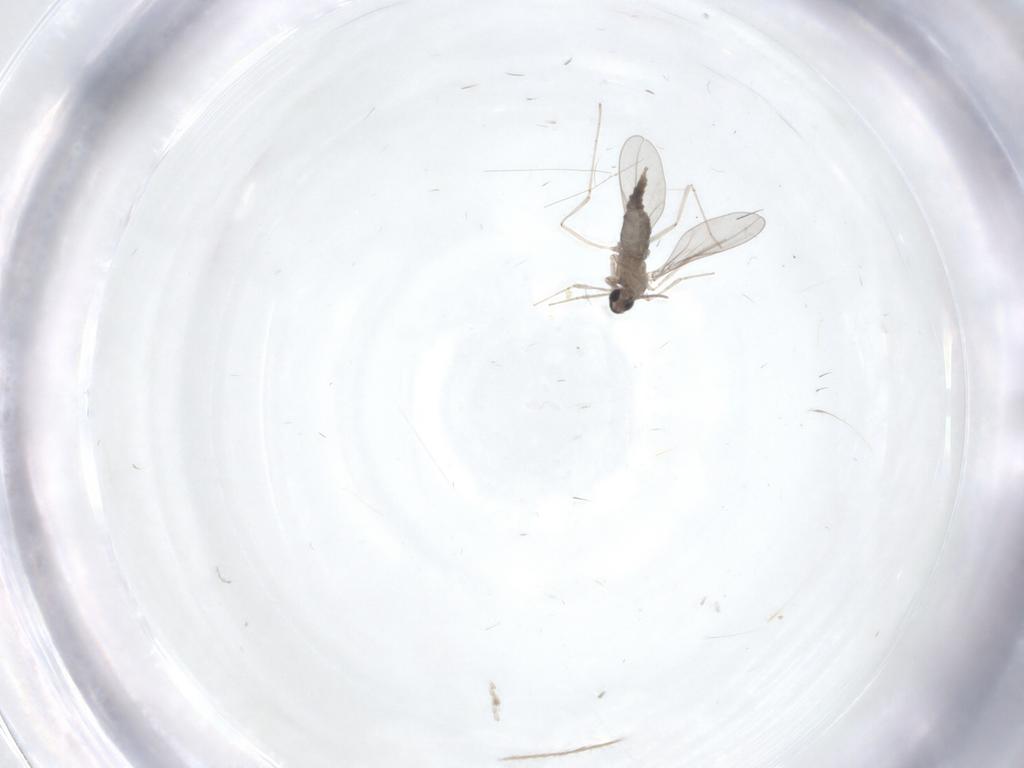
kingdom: Animalia
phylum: Arthropoda
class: Insecta
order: Diptera
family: Cecidomyiidae
